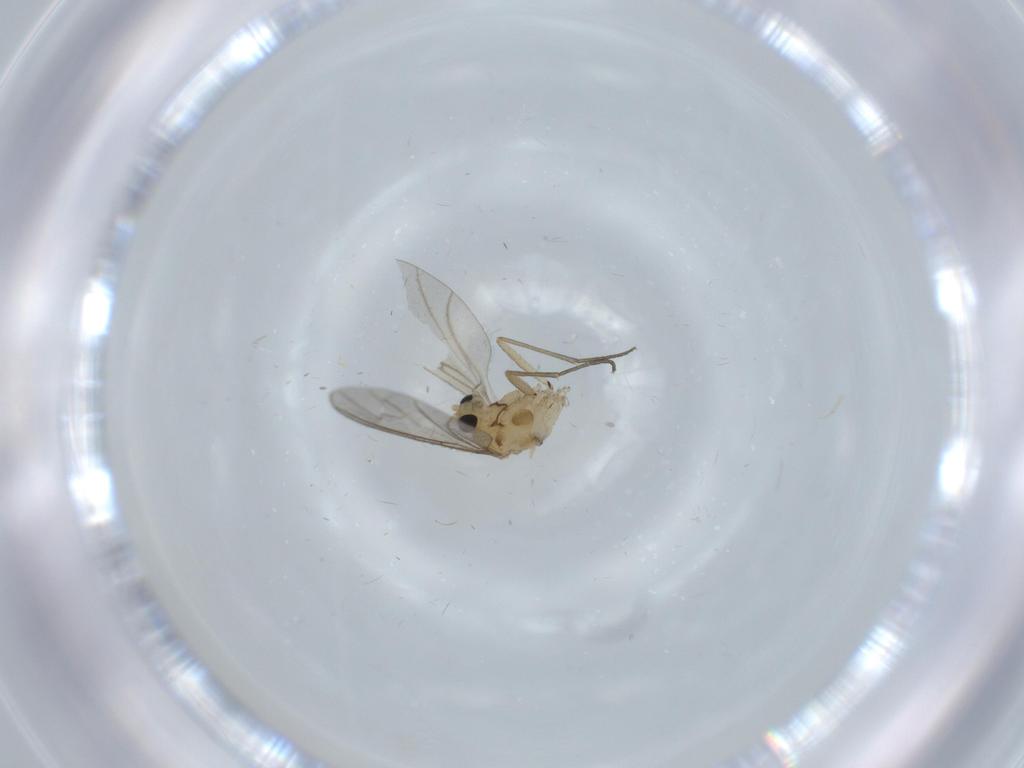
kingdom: Animalia
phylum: Arthropoda
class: Insecta
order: Diptera
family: Sciaridae
